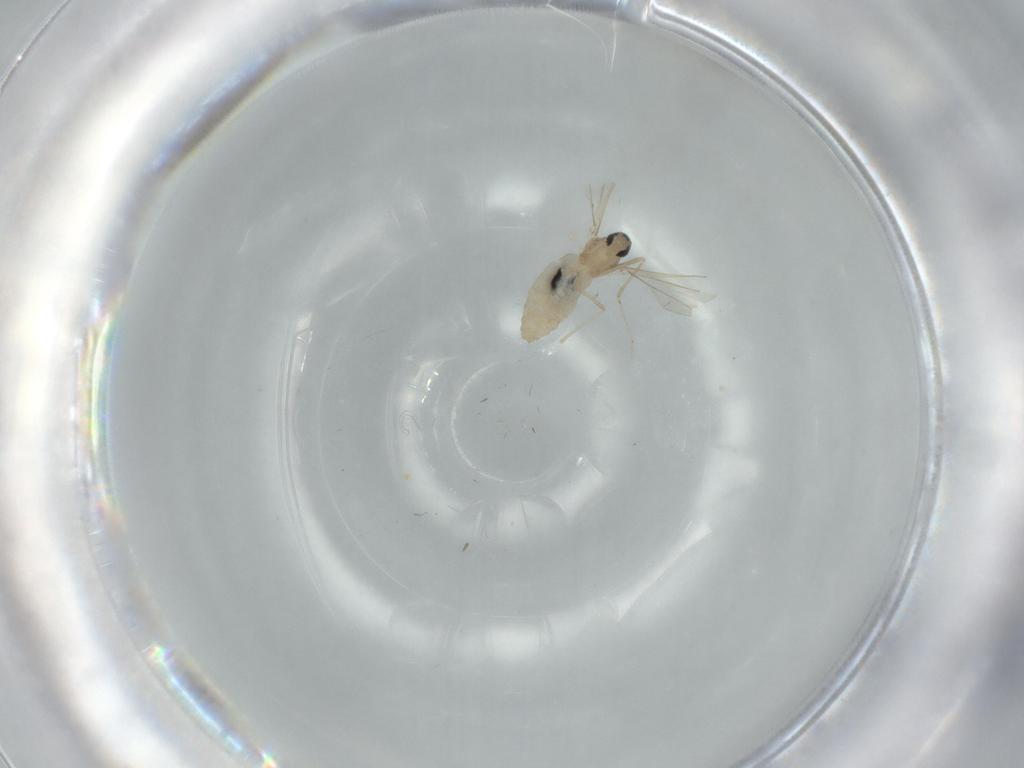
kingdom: Animalia
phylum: Arthropoda
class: Insecta
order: Diptera
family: Cecidomyiidae
